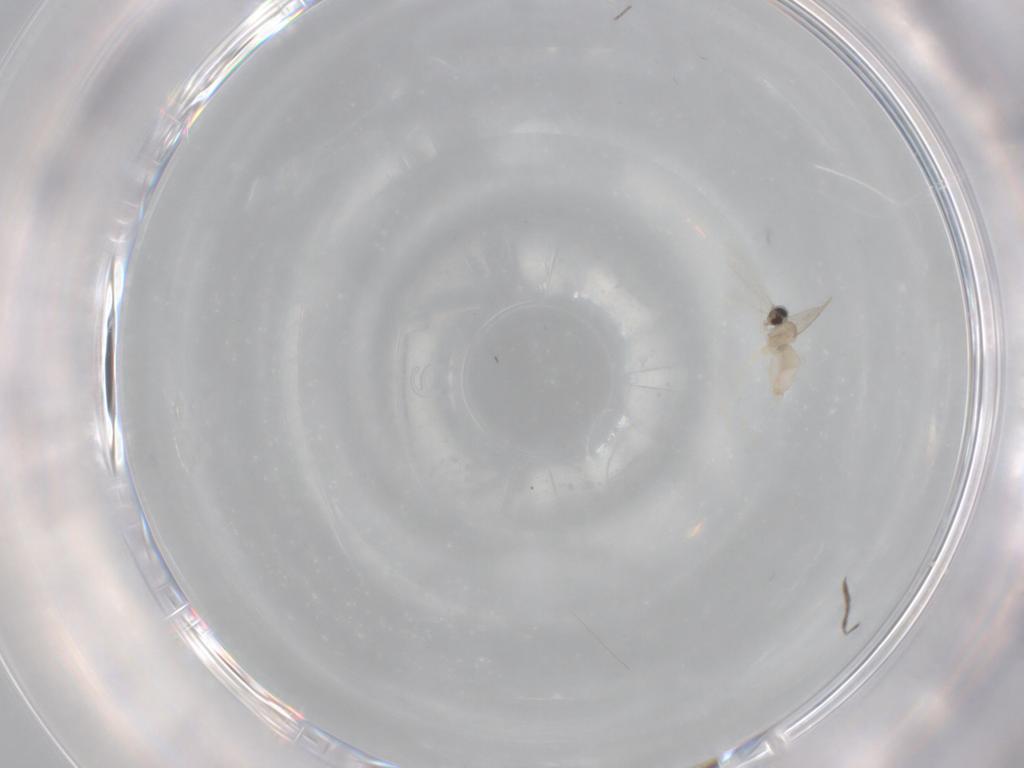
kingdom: Animalia
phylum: Arthropoda
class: Insecta
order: Diptera
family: Cecidomyiidae
